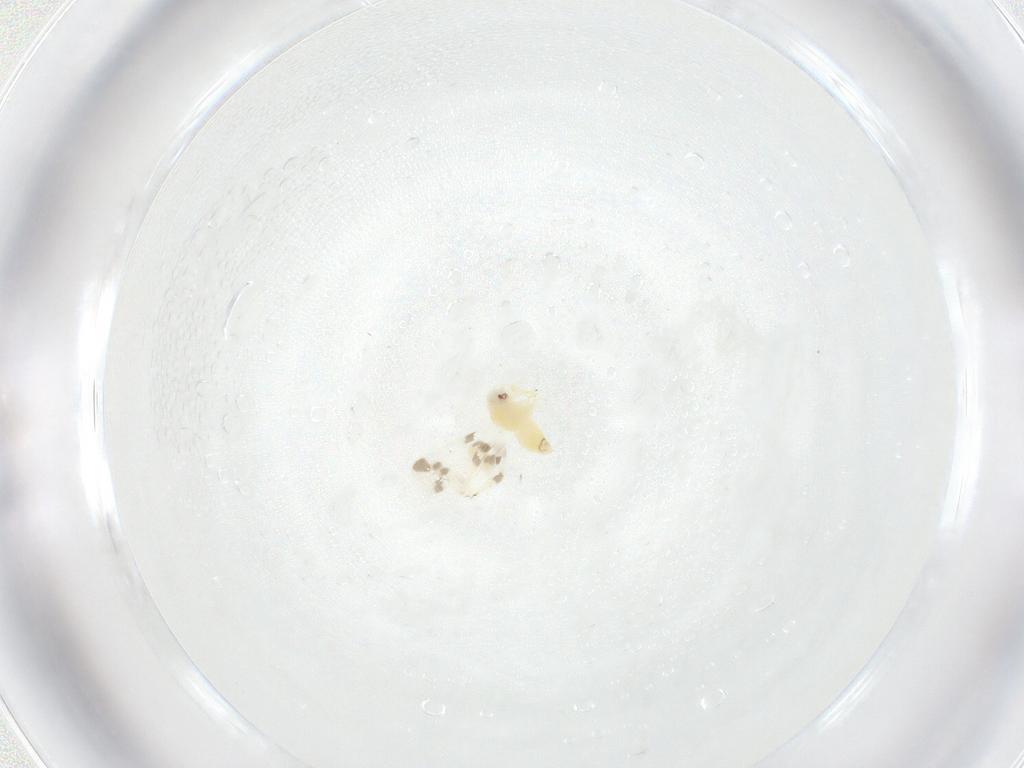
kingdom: Animalia
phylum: Arthropoda
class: Insecta
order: Hemiptera
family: Aleyrodidae
